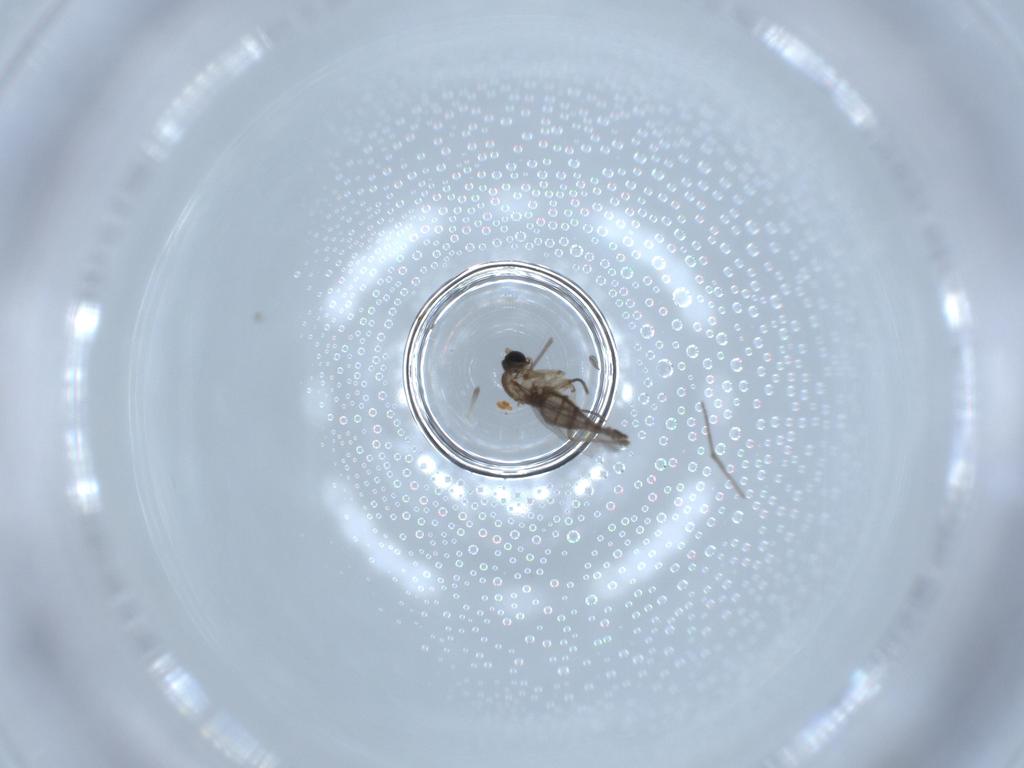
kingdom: Animalia
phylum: Arthropoda
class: Insecta
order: Diptera
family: Sciaridae
